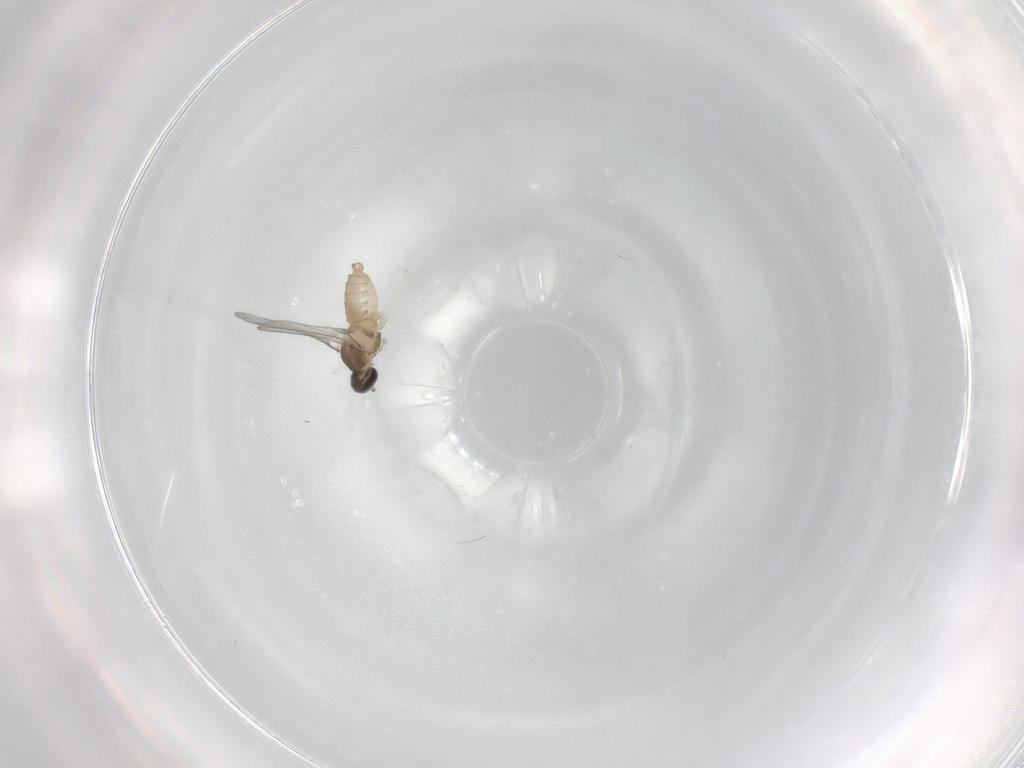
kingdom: Animalia
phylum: Arthropoda
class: Insecta
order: Diptera
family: Cecidomyiidae
